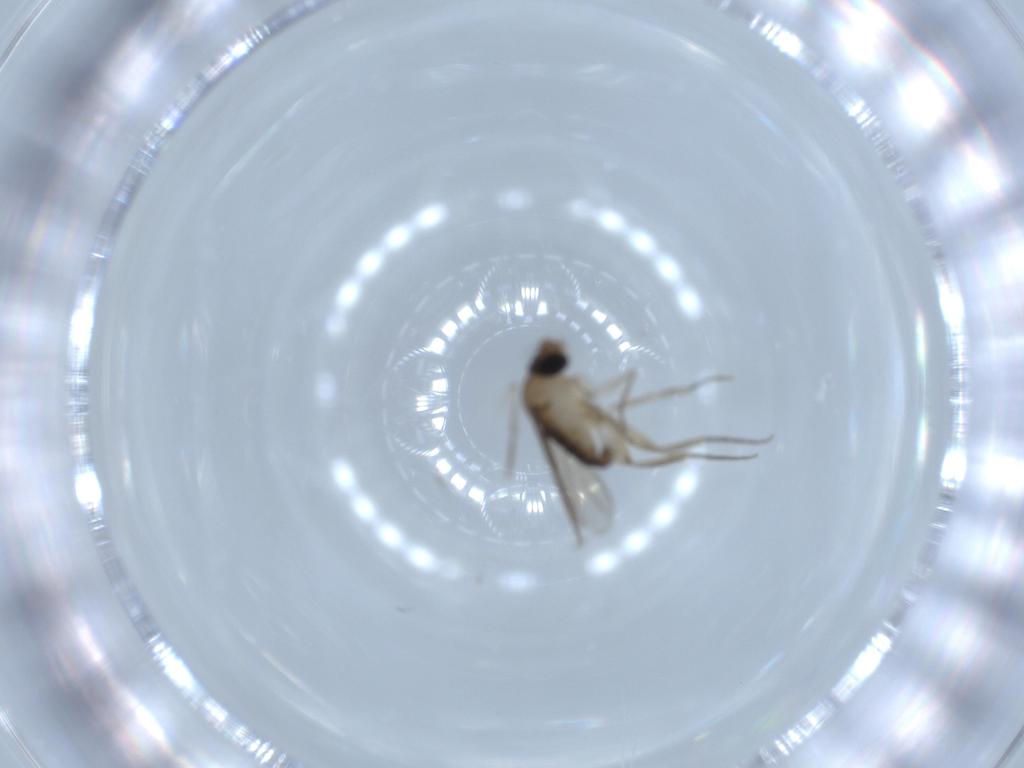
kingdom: Animalia
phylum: Arthropoda
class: Insecta
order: Diptera
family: Phoridae
